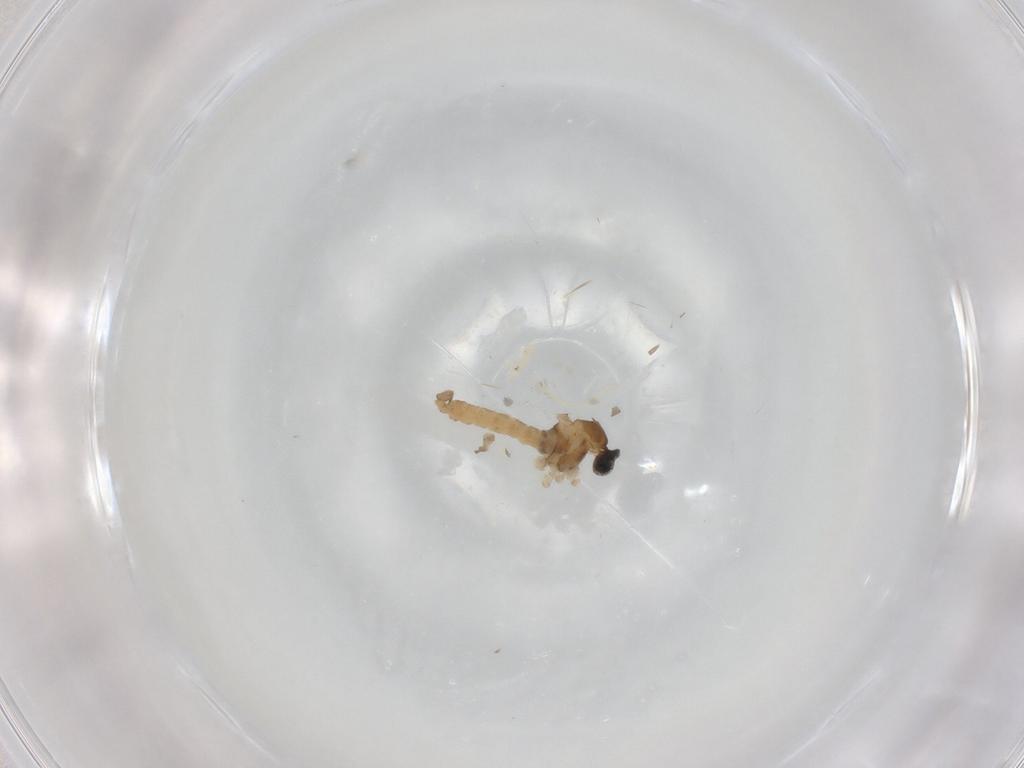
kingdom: Animalia
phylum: Arthropoda
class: Insecta
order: Diptera
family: Cecidomyiidae
